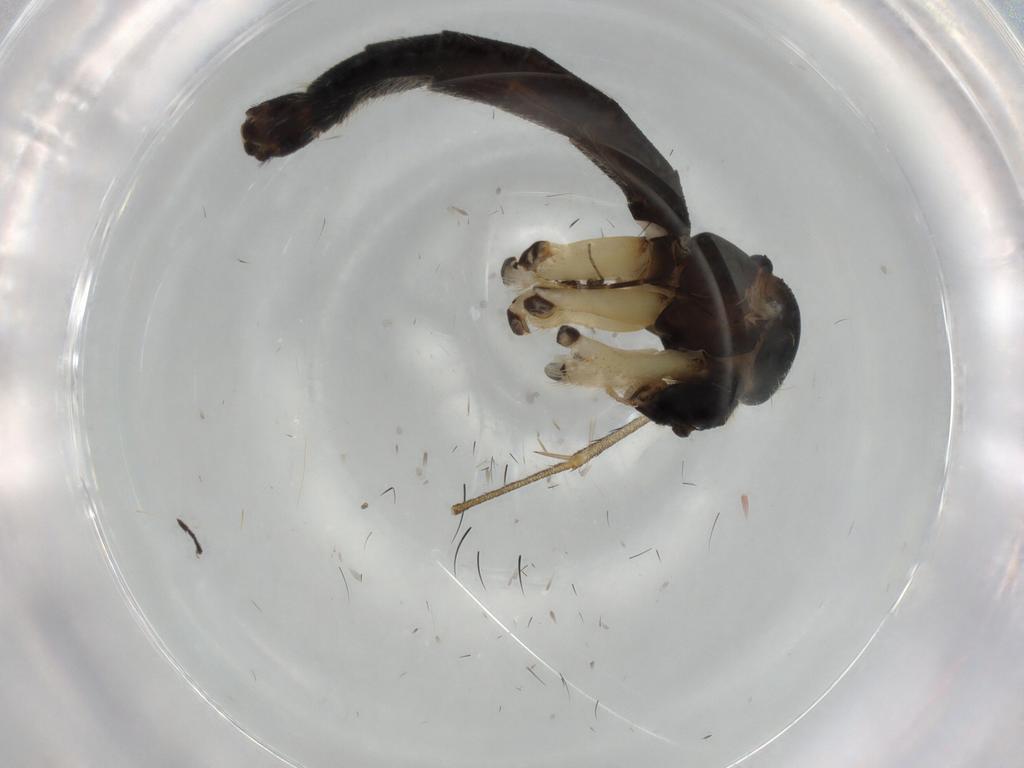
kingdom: Animalia
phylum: Arthropoda
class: Insecta
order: Diptera
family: Mycetophilidae
